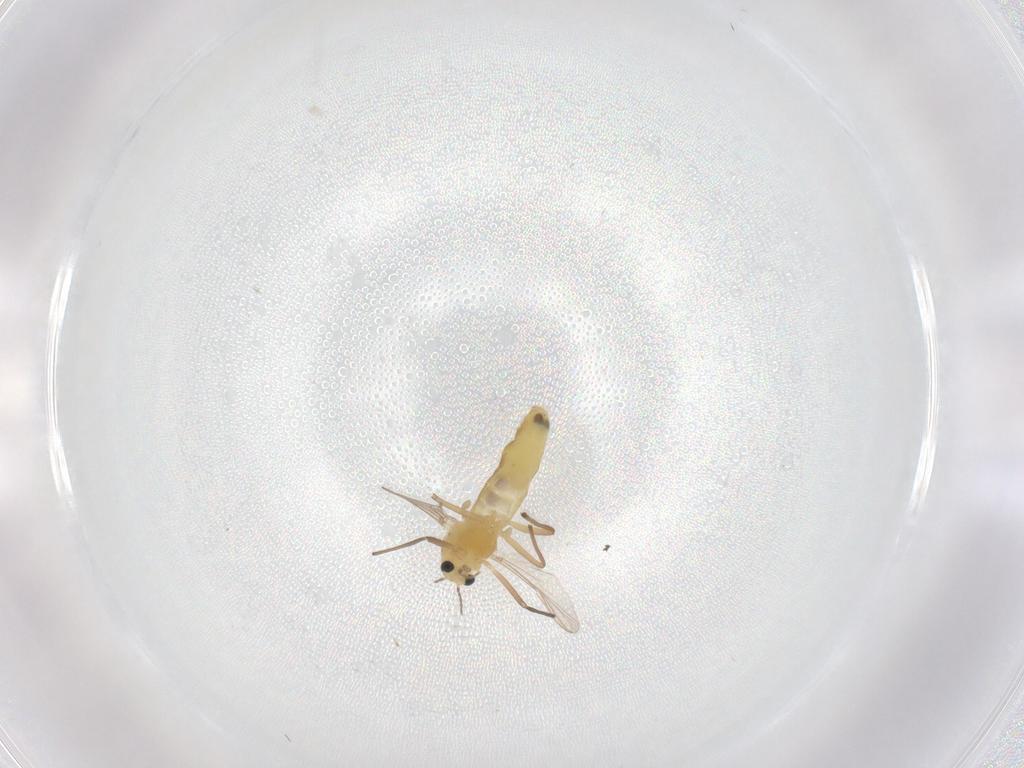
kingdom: Animalia
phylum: Arthropoda
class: Insecta
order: Diptera
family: Chironomidae
